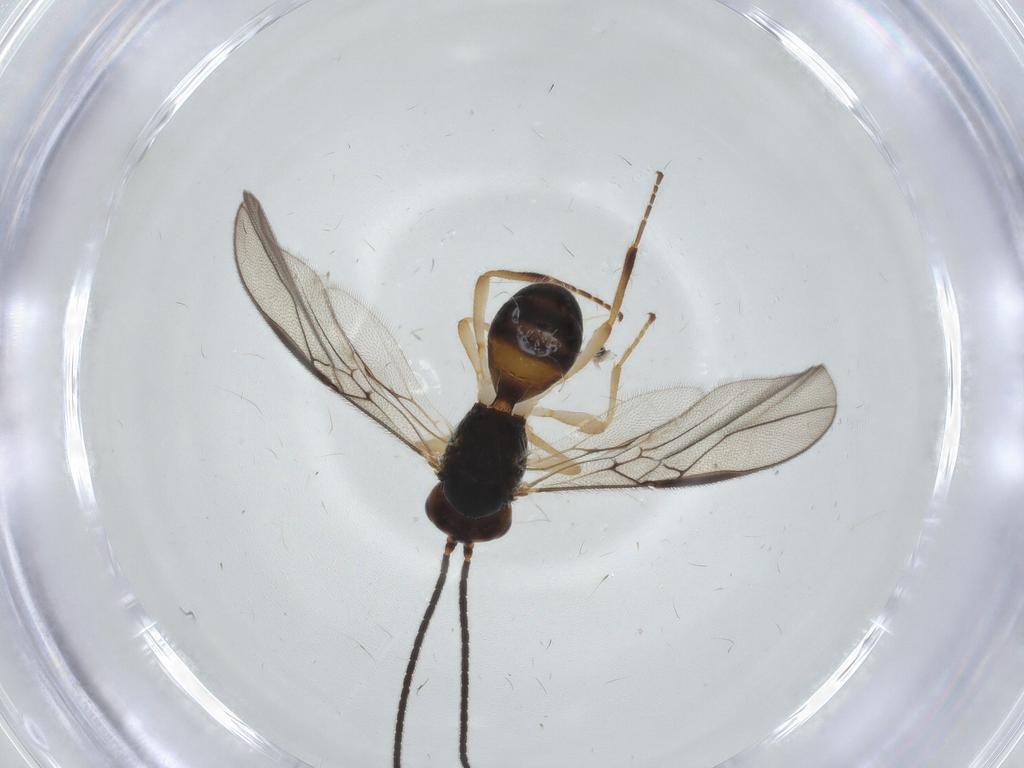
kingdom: Animalia
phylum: Arthropoda
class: Insecta
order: Hymenoptera
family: Braconidae
